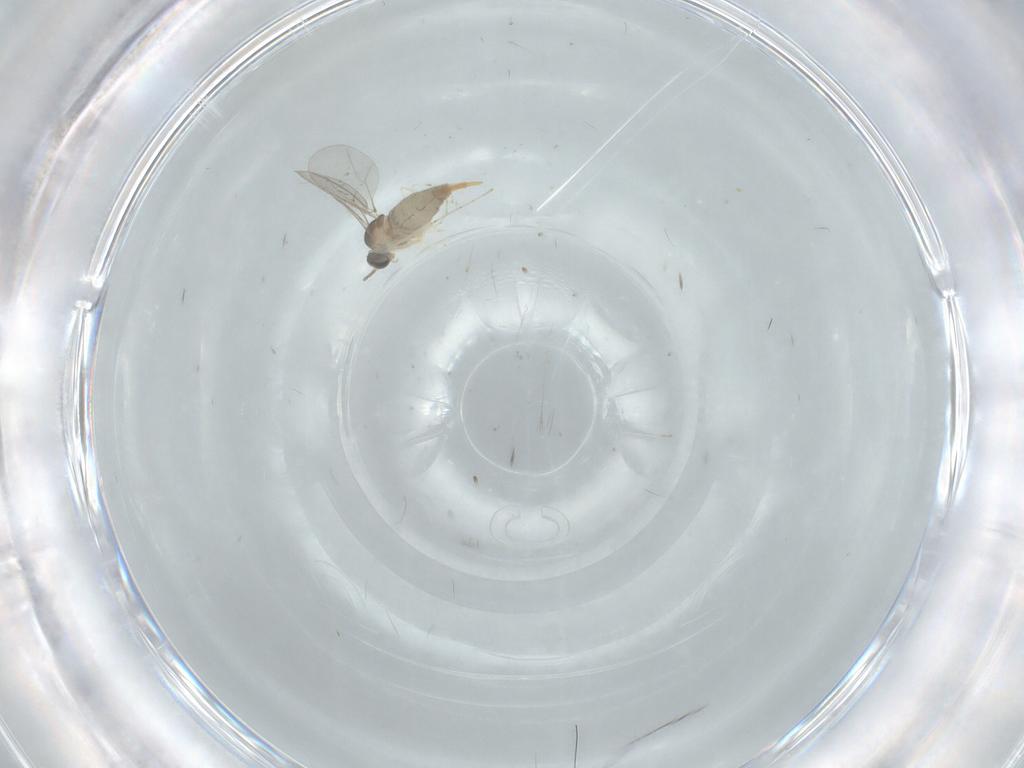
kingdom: Animalia
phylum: Arthropoda
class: Insecta
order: Diptera
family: Cecidomyiidae
